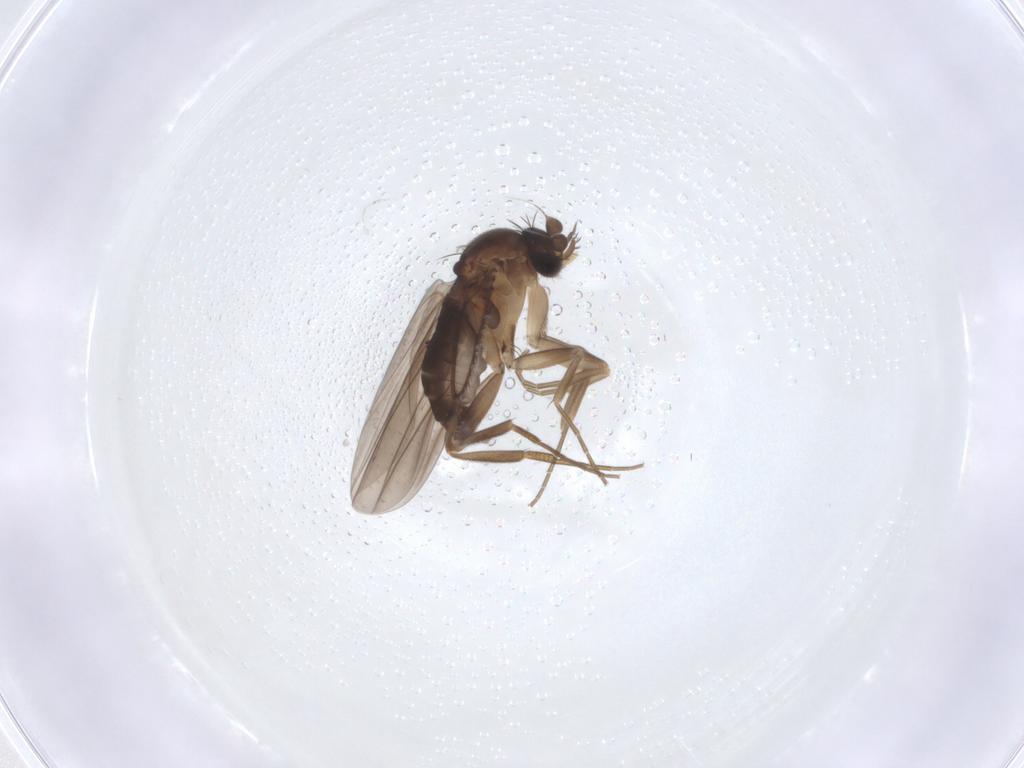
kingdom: Animalia
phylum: Arthropoda
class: Insecta
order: Diptera
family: Phoridae
